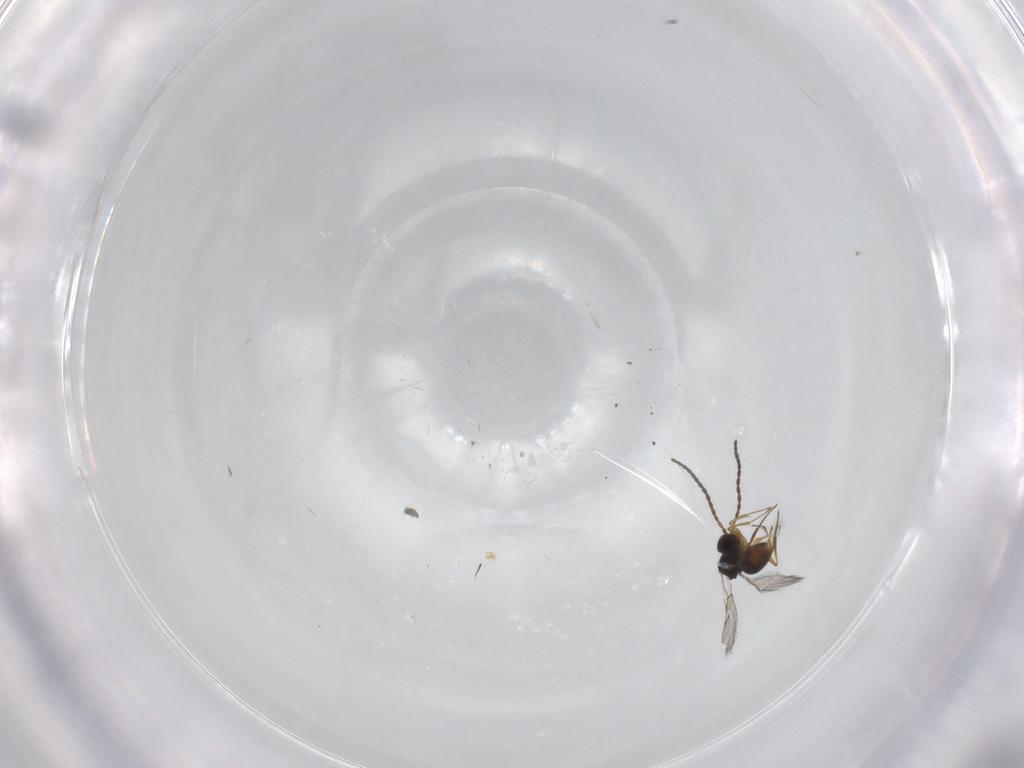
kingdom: Animalia
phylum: Arthropoda
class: Insecta
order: Hymenoptera
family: Figitidae
